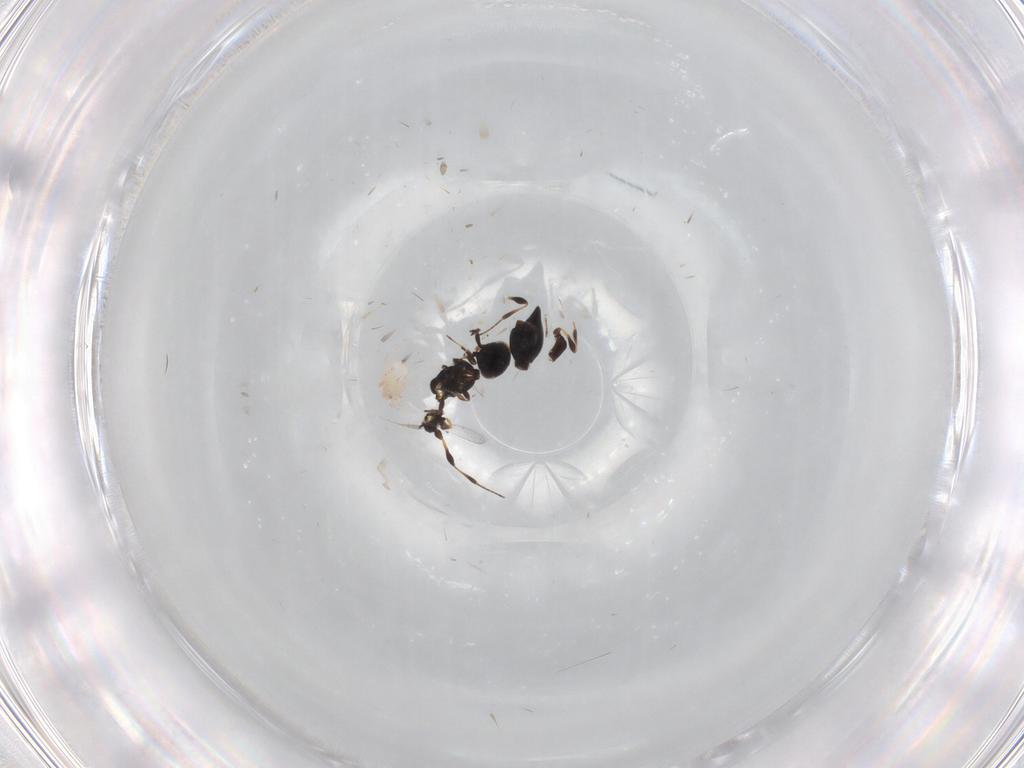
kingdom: Animalia
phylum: Arthropoda
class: Insecta
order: Hymenoptera
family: Platygastridae
